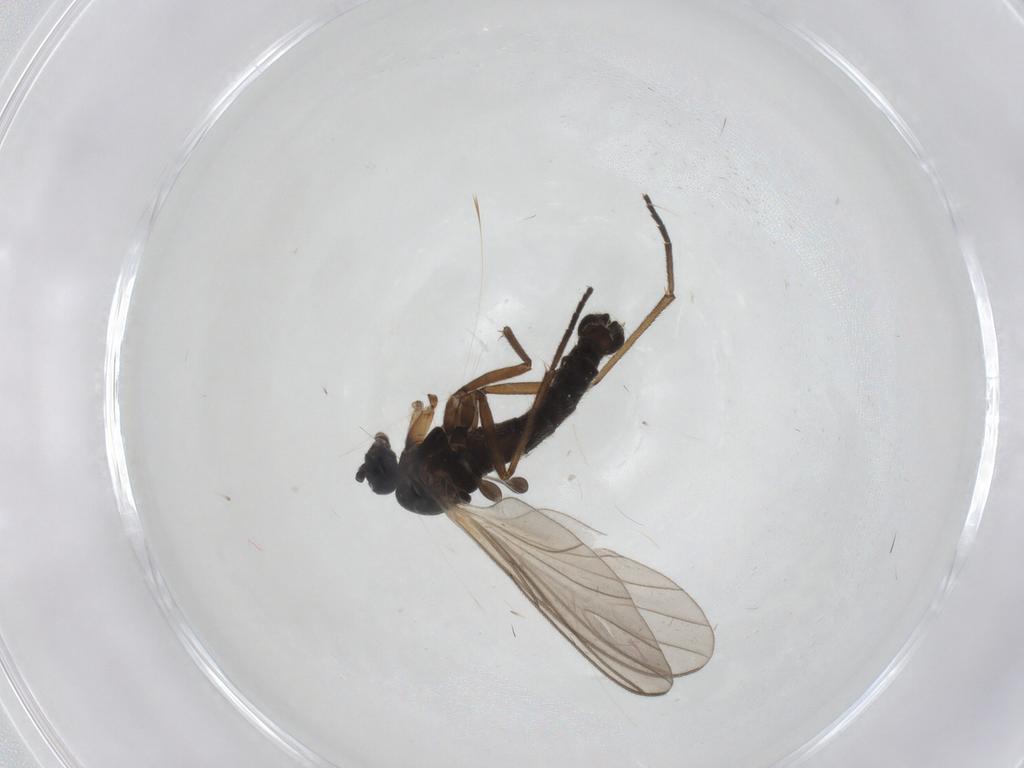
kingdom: Animalia
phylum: Arthropoda
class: Insecta
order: Diptera
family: Sciaridae
